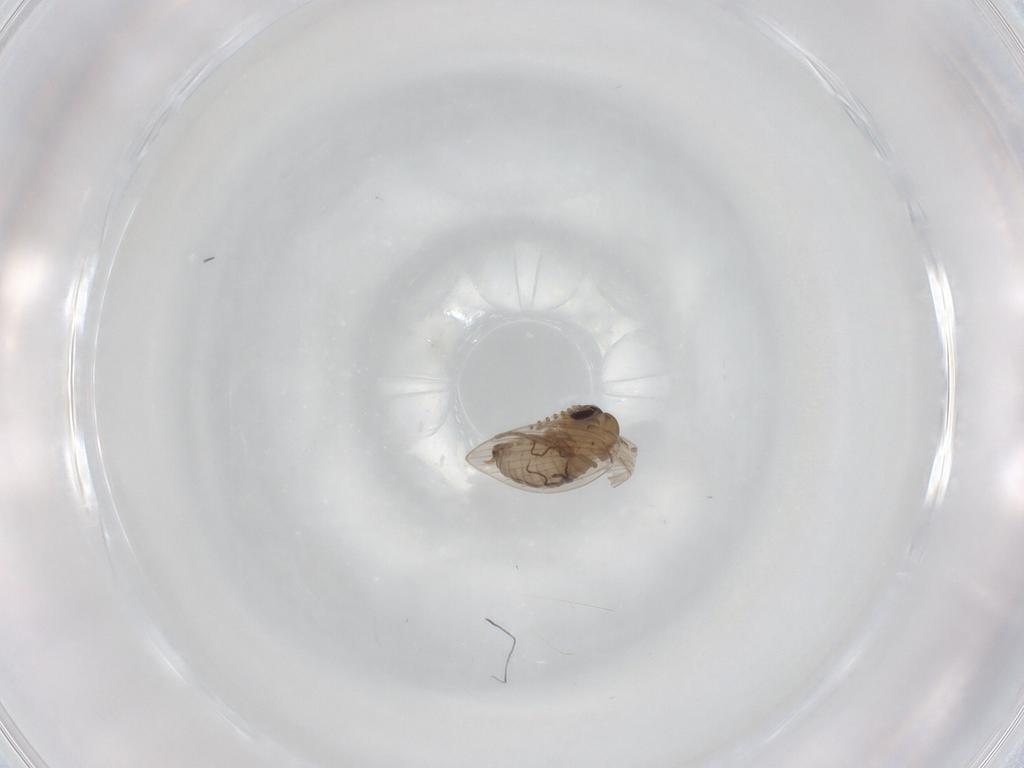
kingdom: Animalia
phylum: Arthropoda
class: Insecta
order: Diptera
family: Psychodidae
